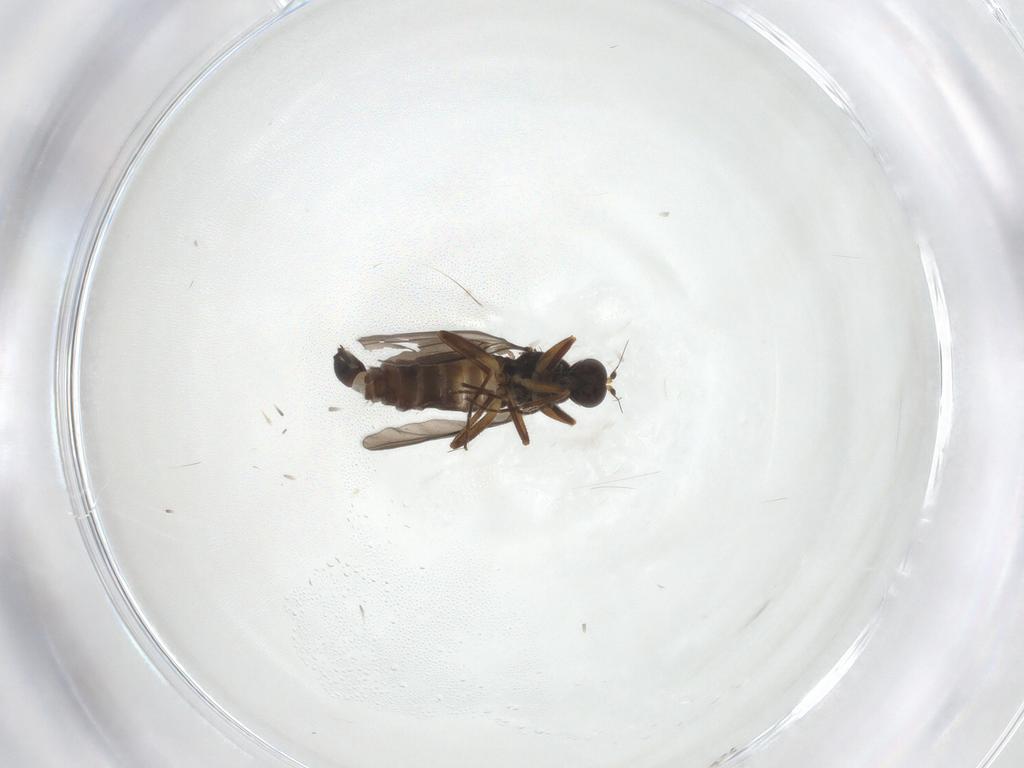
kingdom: Animalia
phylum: Arthropoda
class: Insecta
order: Diptera
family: Hybotidae
